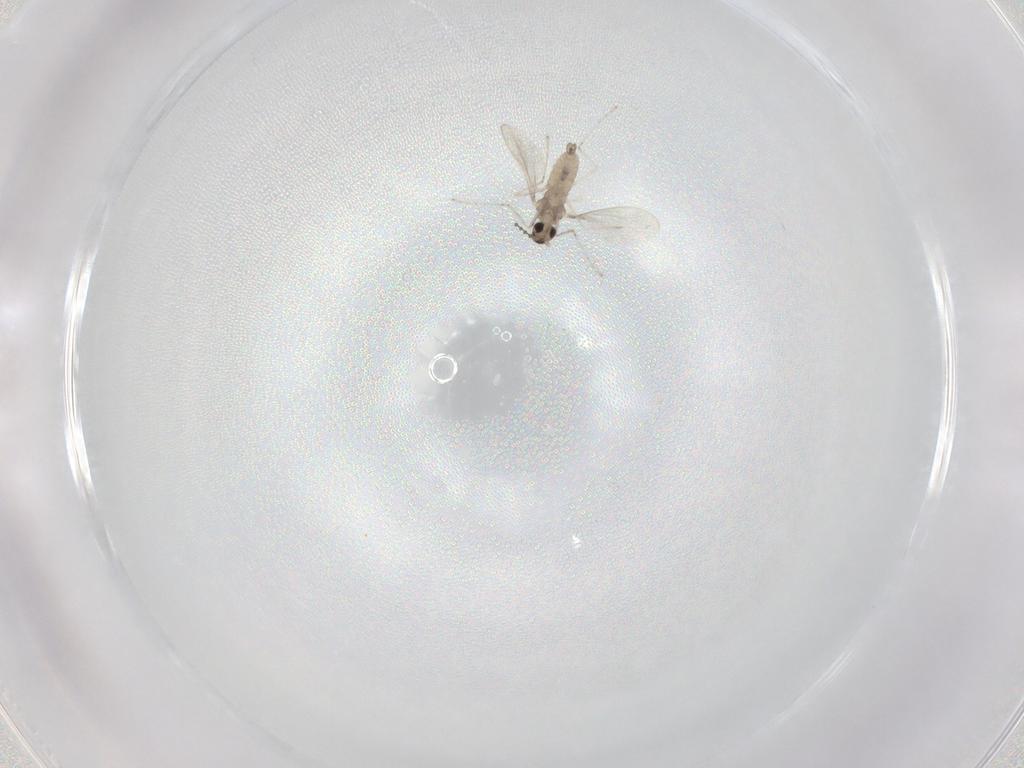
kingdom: Animalia
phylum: Arthropoda
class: Insecta
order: Diptera
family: Cecidomyiidae
